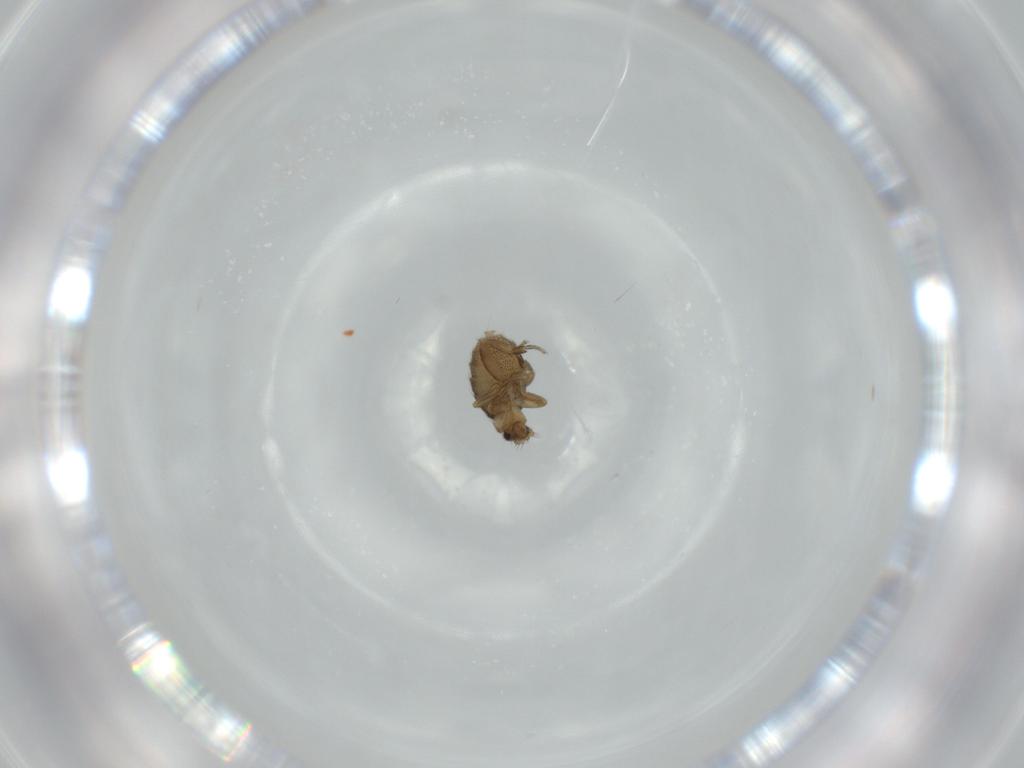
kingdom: Animalia
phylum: Arthropoda
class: Insecta
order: Diptera
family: Phoridae
